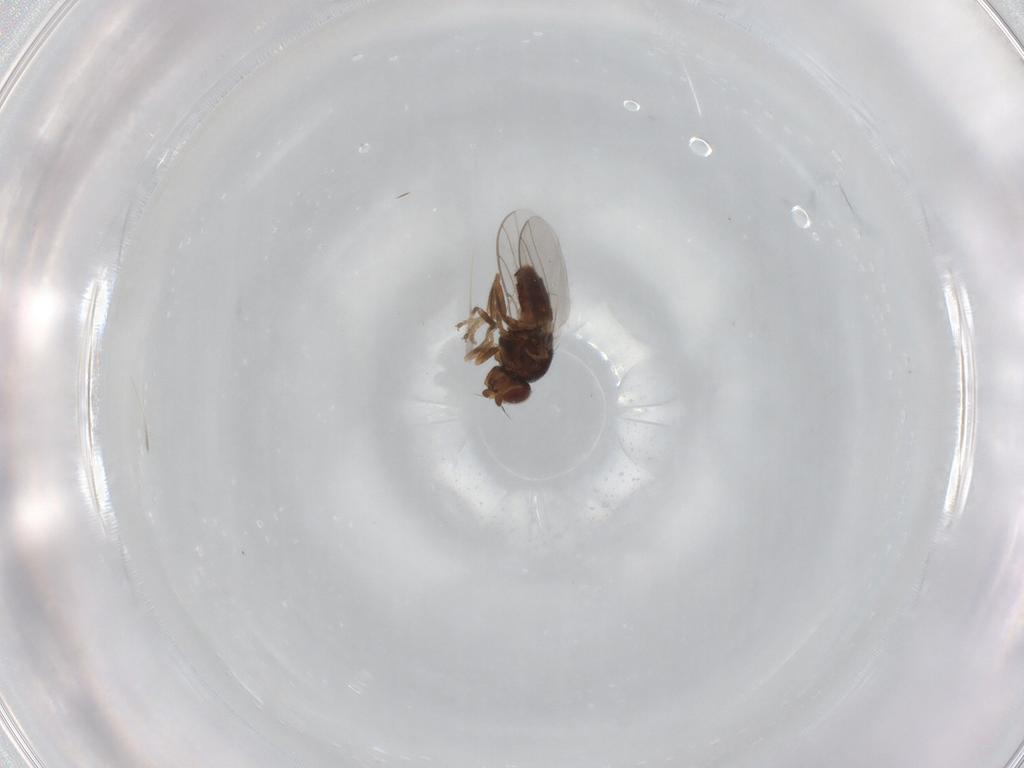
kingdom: Animalia
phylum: Arthropoda
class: Insecta
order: Diptera
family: Chloropidae
